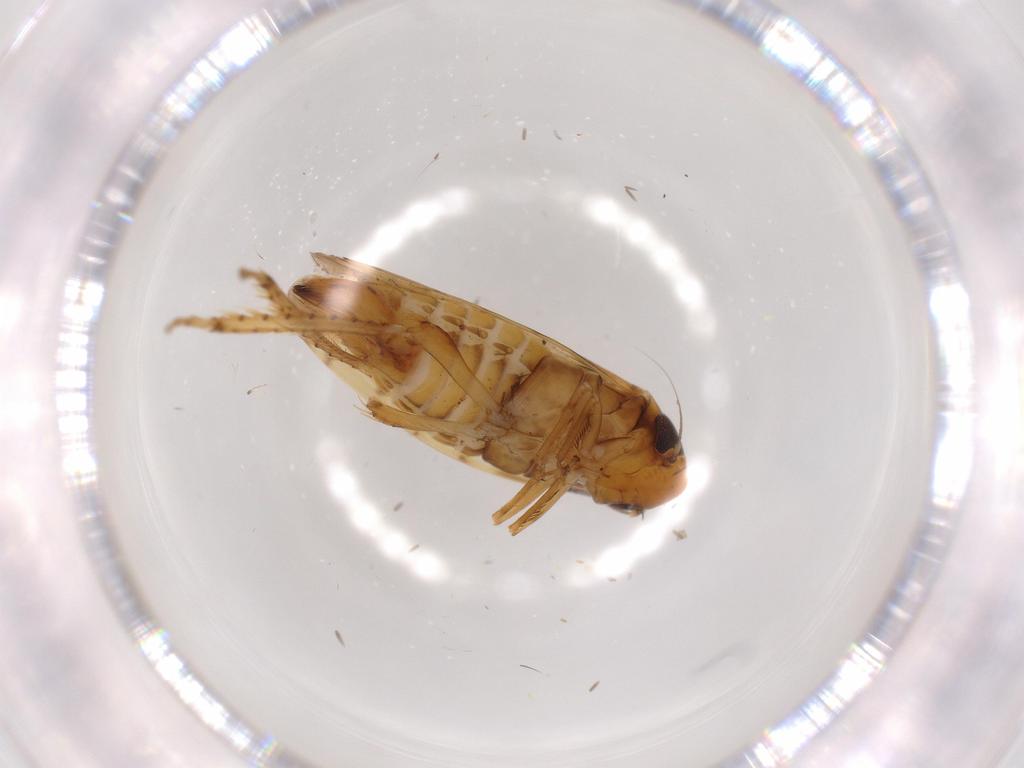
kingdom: Animalia
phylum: Arthropoda
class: Insecta
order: Hemiptera
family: Cicadellidae
